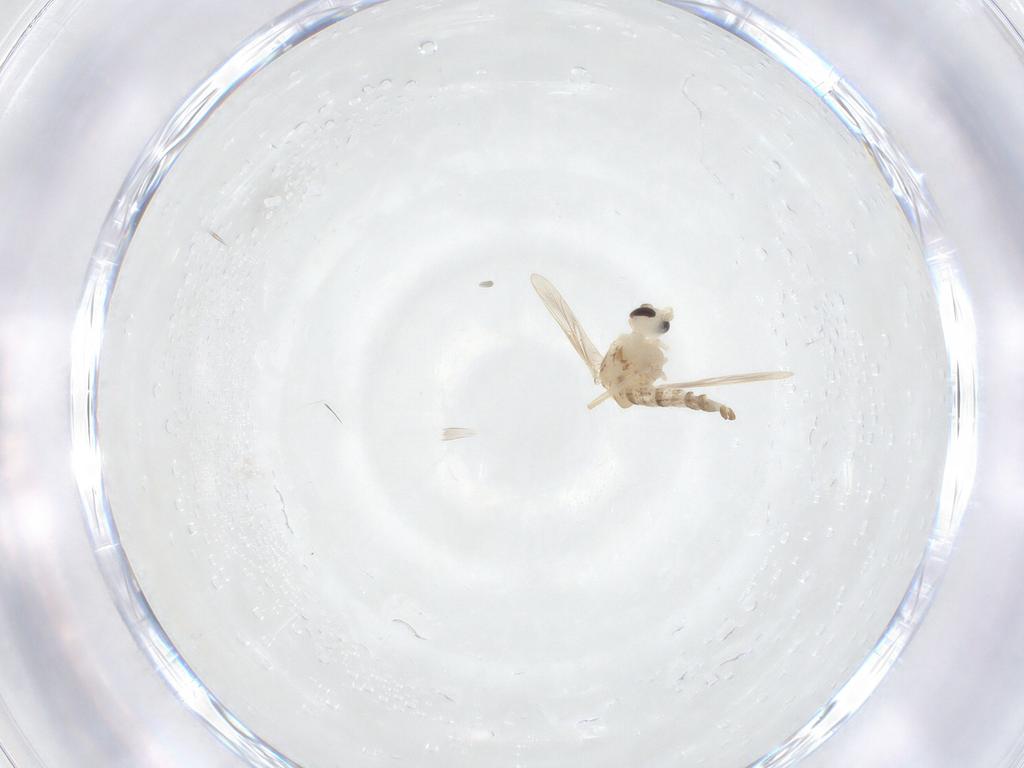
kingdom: Animalia
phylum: Arthropoda
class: Insecta
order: Diptera
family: Chironomidae
